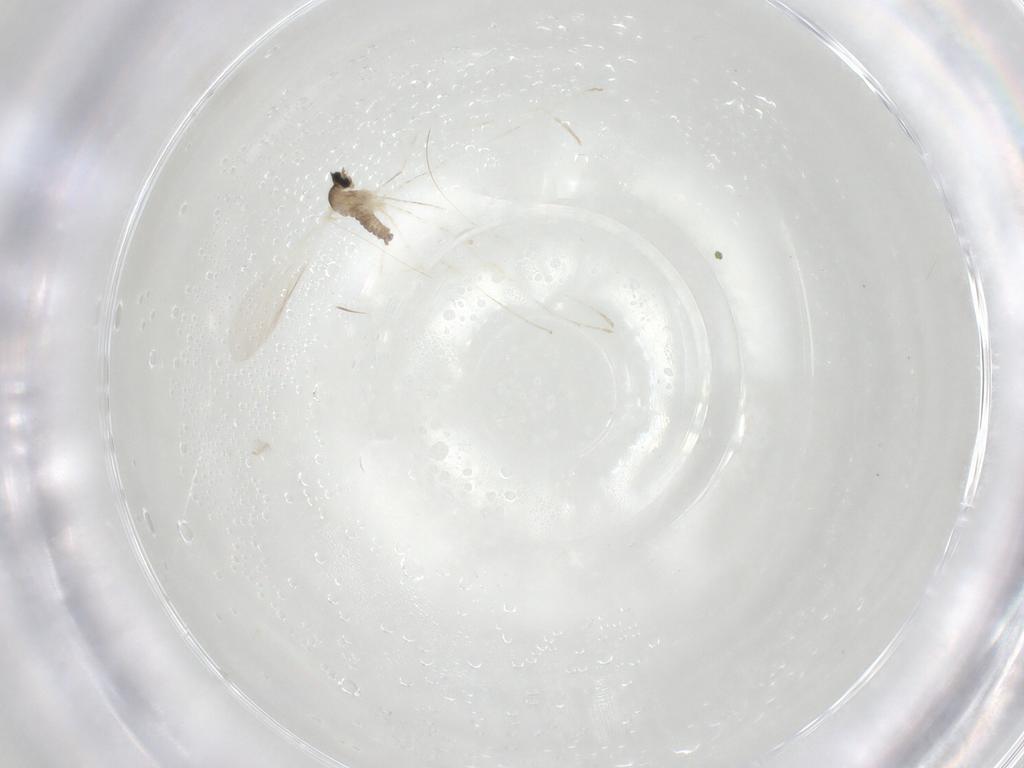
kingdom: Animalia
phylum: Arthropoda
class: Insecta
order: Diptera
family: Cecidomyiidae
